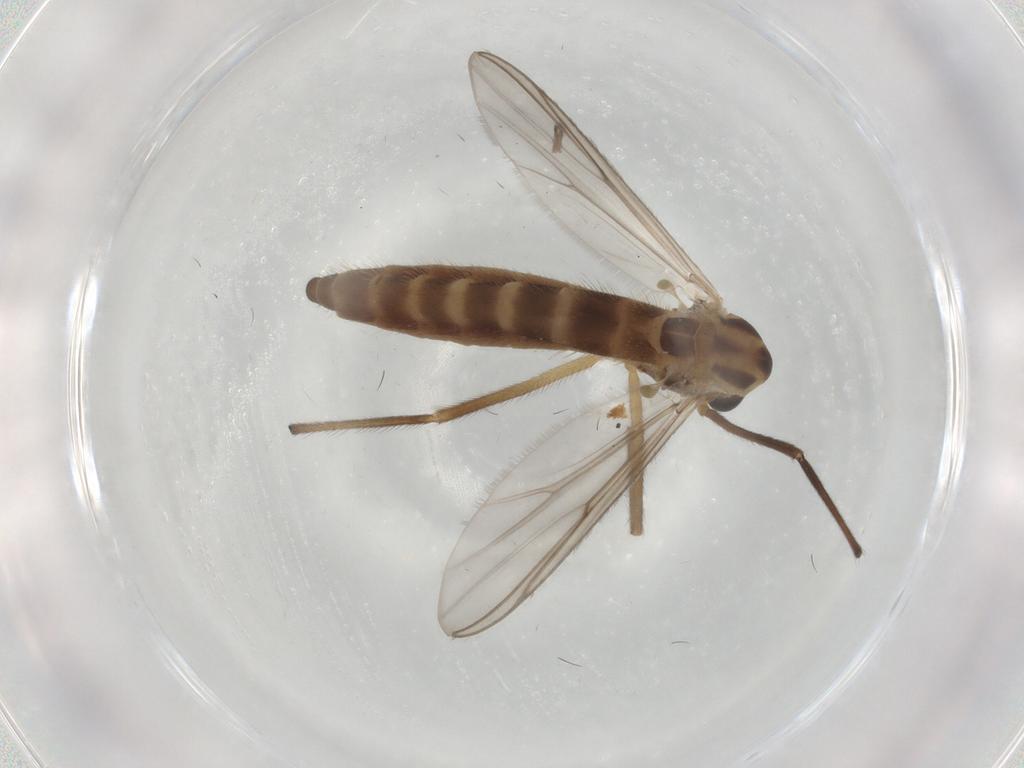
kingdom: Animalia
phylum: Arthropoda
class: Insecta
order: Diptera
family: Chironomidae
